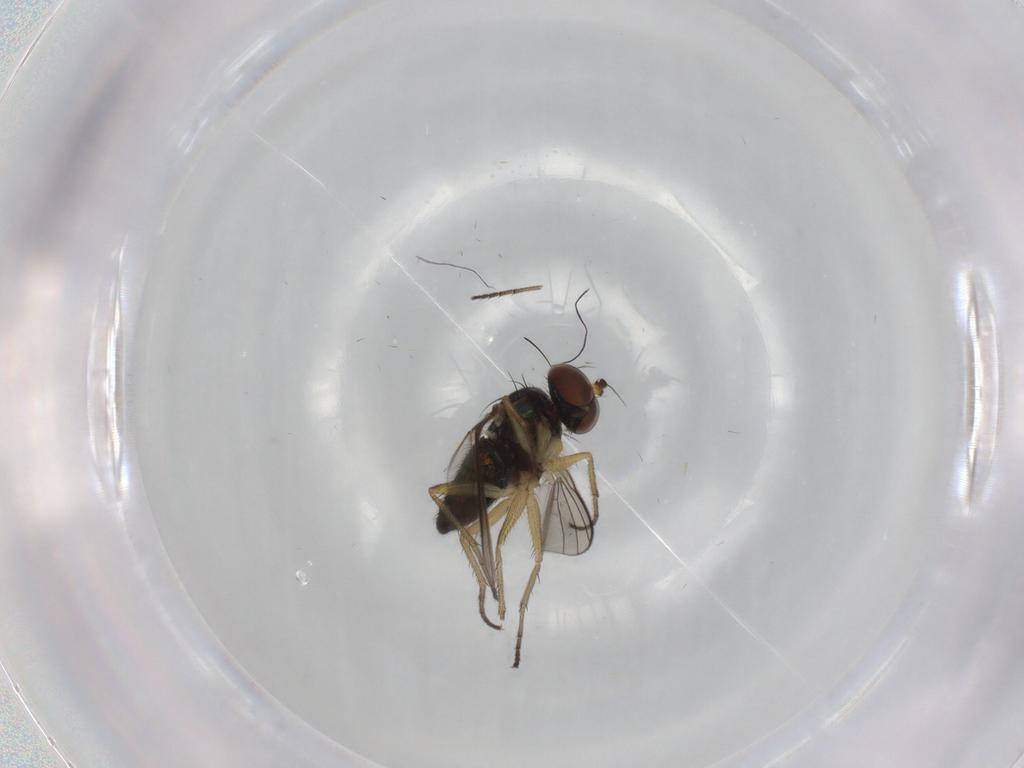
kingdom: Animalia
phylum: Arthropoda
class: Insecta
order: Diptera
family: Dolichopodidae
